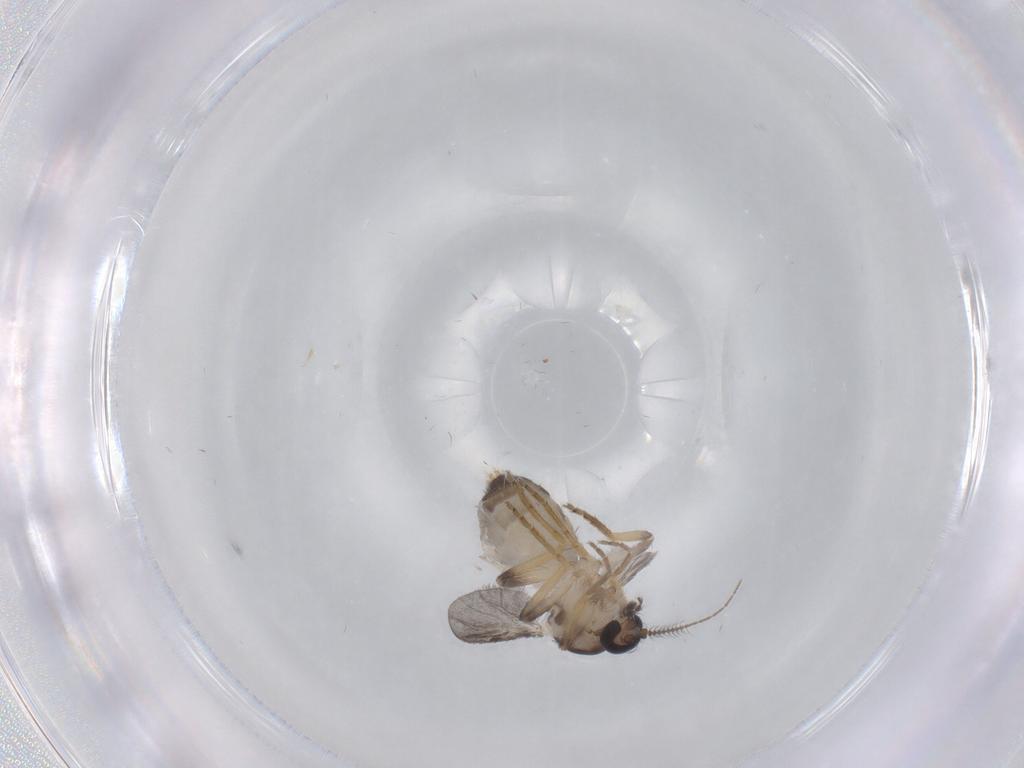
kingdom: Animalia
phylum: Arthropoda
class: Insecta
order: Diptera
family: Ceratopogonidae
